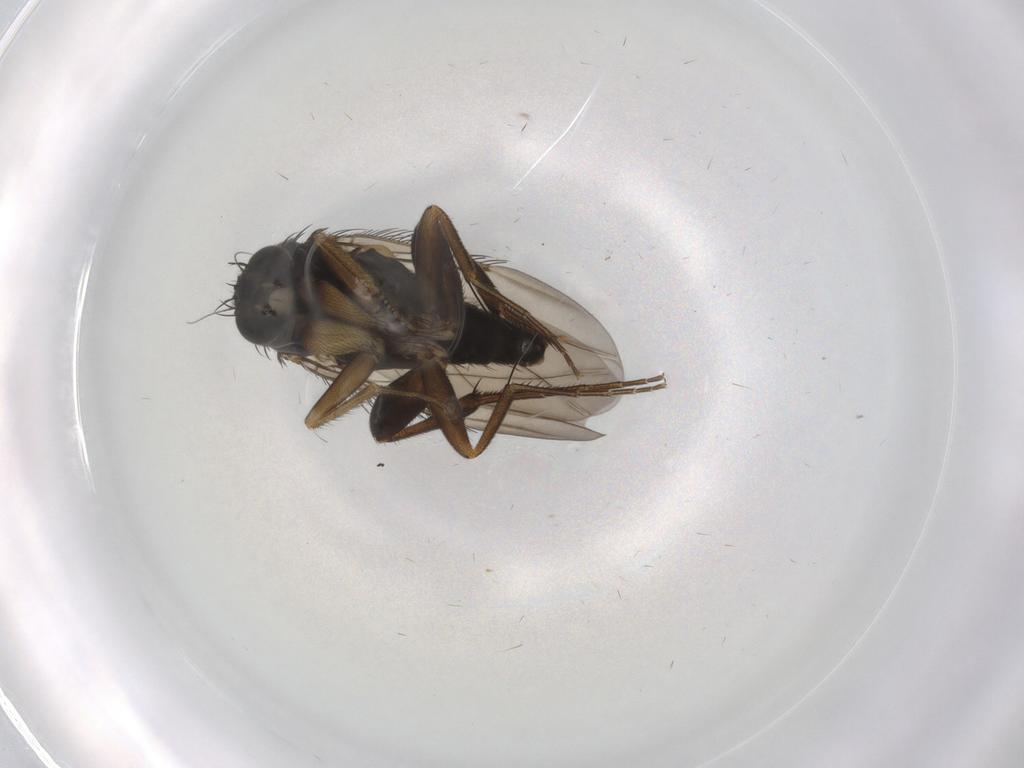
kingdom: Animalia
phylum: Arthropoda
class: Insecta
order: Diptera
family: Phoridae
